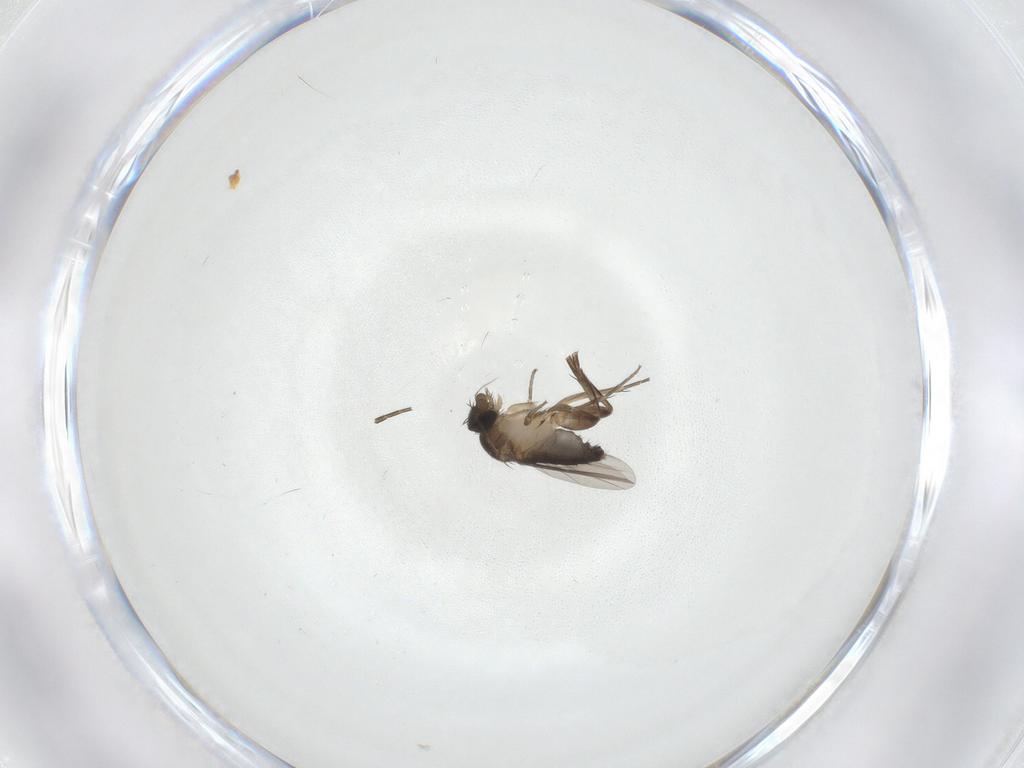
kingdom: Animalia
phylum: Arthropoda
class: Insecta
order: Diptera
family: Phoridae
